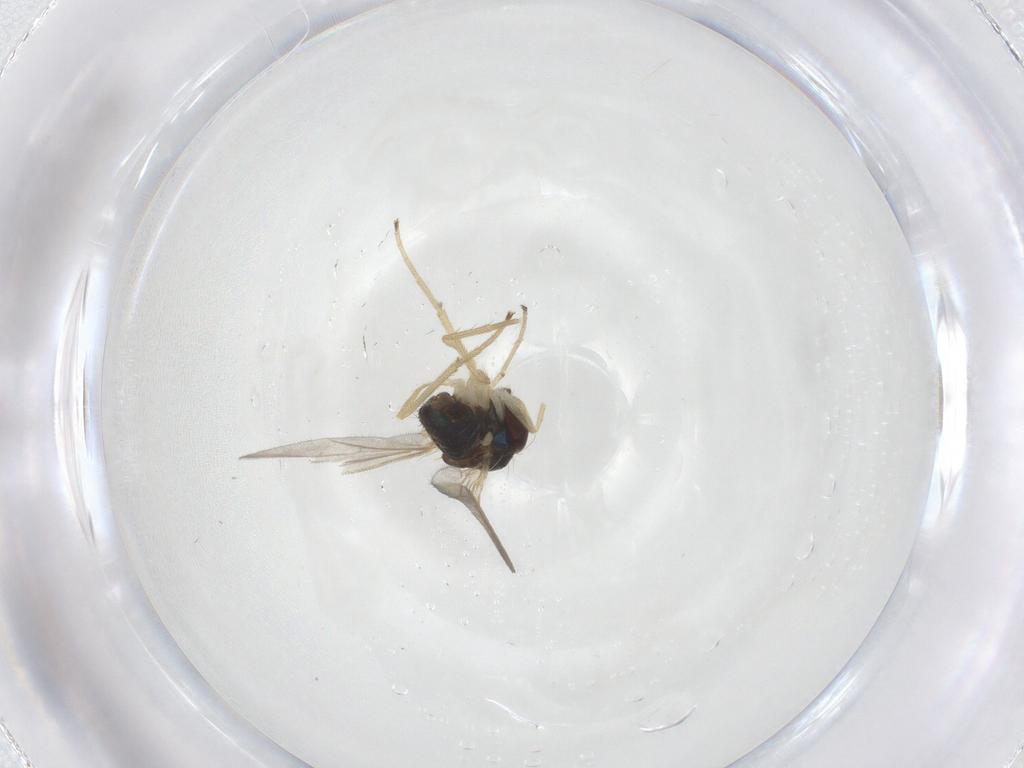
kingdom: Animalia
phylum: Arthropoda
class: Insecta
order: Diptera
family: Dolichopodidae
